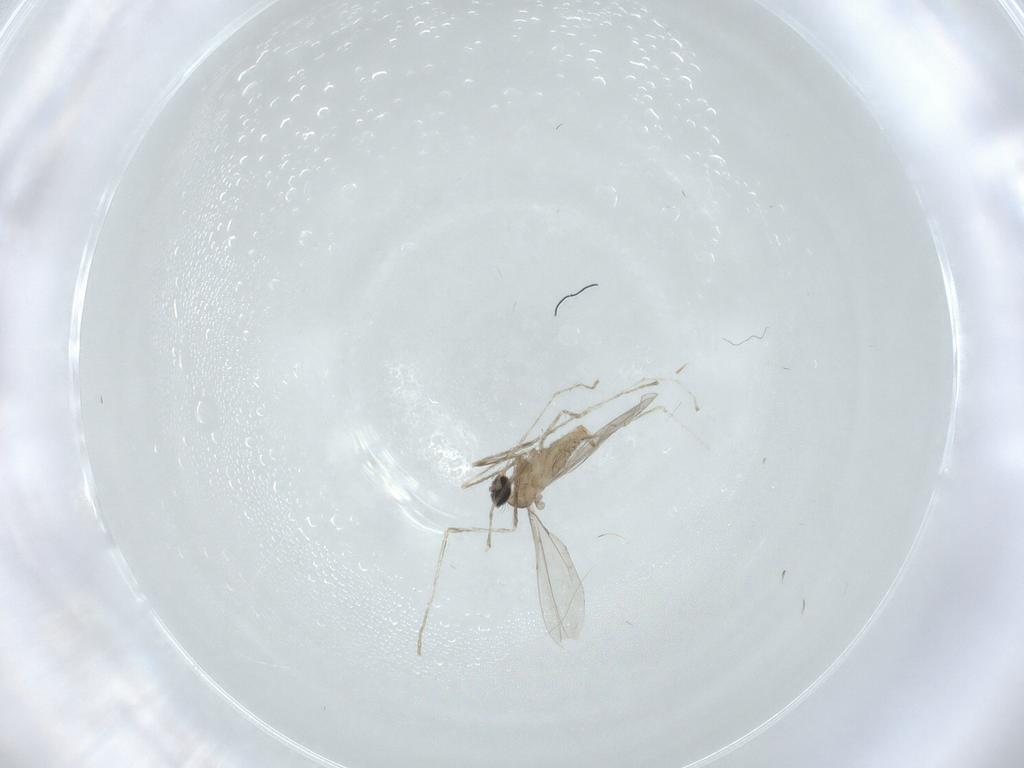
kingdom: Animalia
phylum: Arthropoda
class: Insecta
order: Diptera
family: Cecidomyiidae
